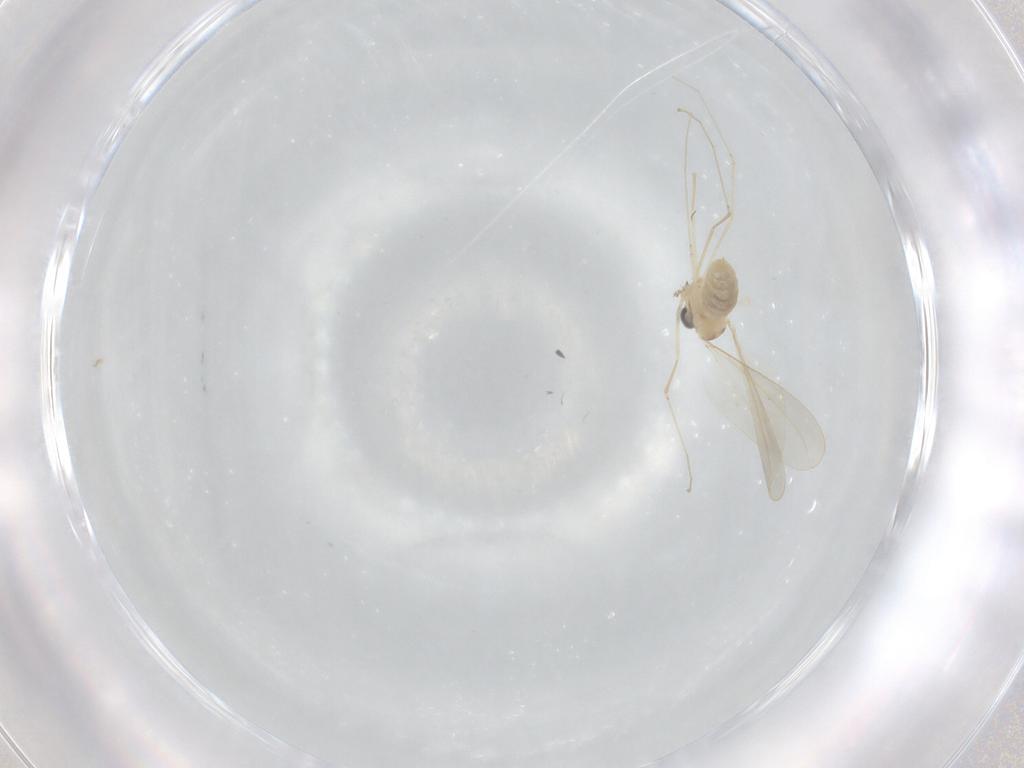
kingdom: Animalia
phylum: Arthropoda
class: Insecta
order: Diptera
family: Cecidomyiidae
